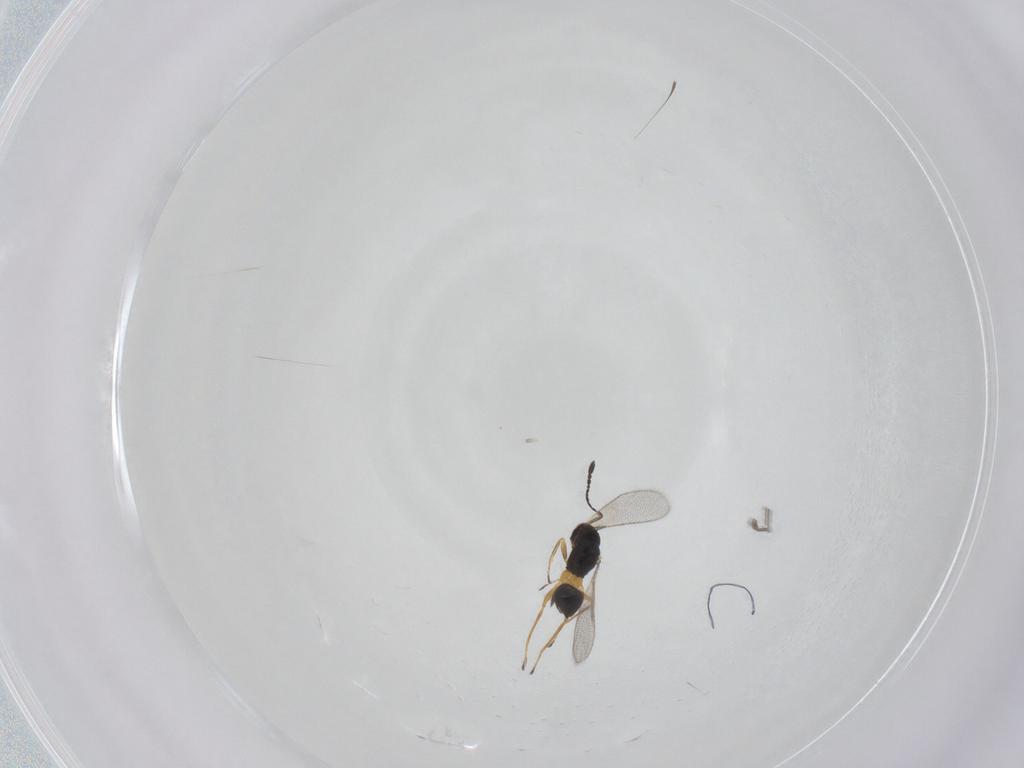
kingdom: Animalia
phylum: Arthropoda
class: Insecta
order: Hymenoptera
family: Mymaridae
